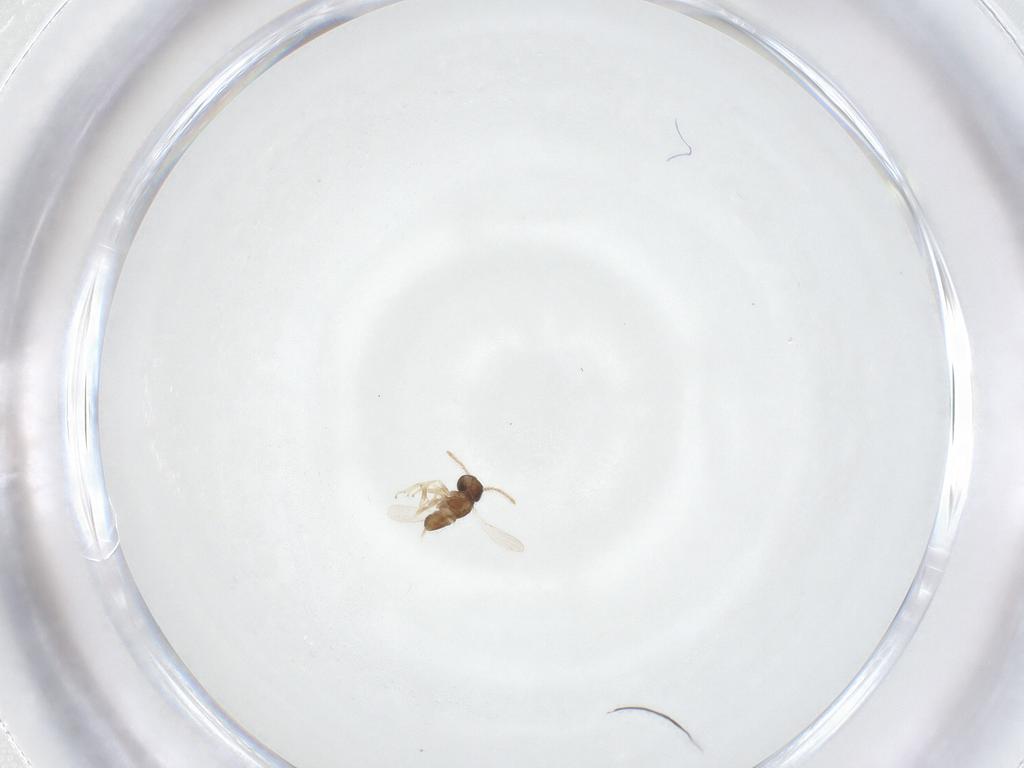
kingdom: Animalia
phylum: Arthropoda
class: Insecta
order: Hymenoptera
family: Encyrtidae
